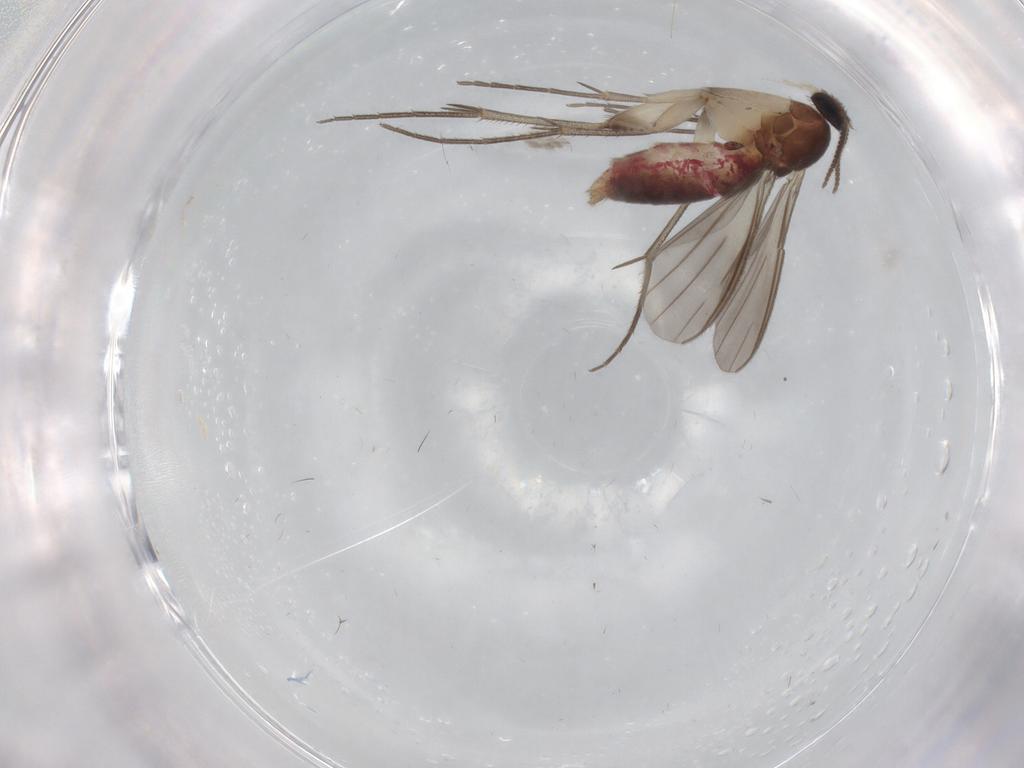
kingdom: Animalia
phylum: Arthropoda
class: Insecta
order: Diptera
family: Mycetophilidae
